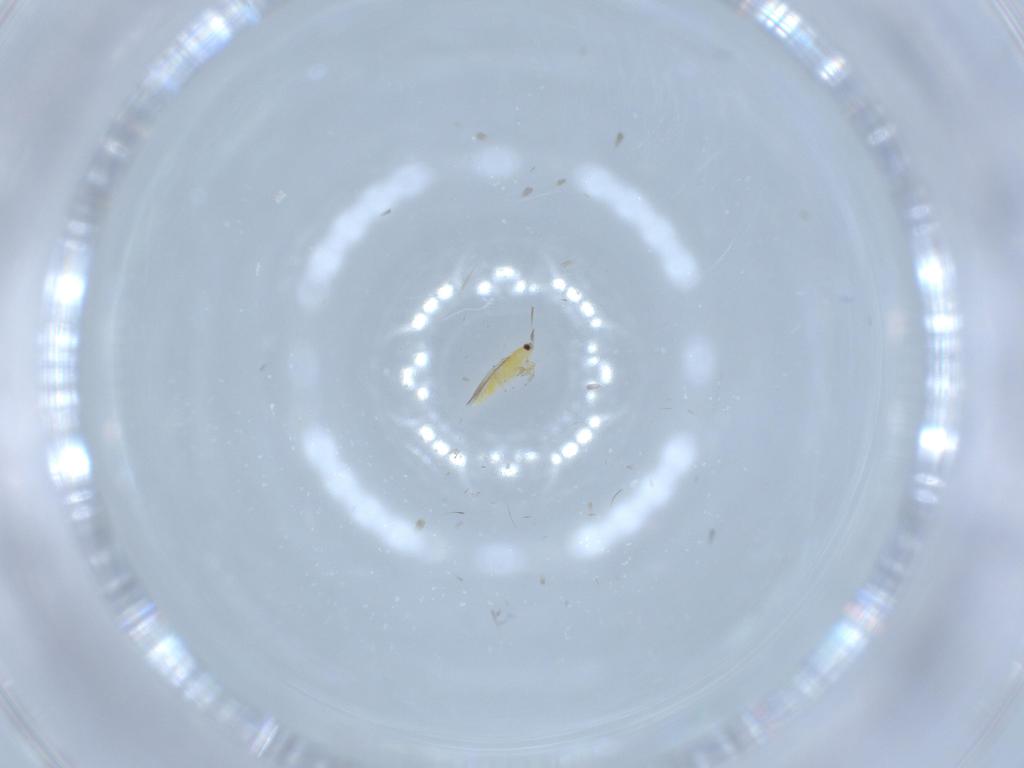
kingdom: Animalia
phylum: Arthropoda
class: Insecta
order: Thysanoptera
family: Thripidae
